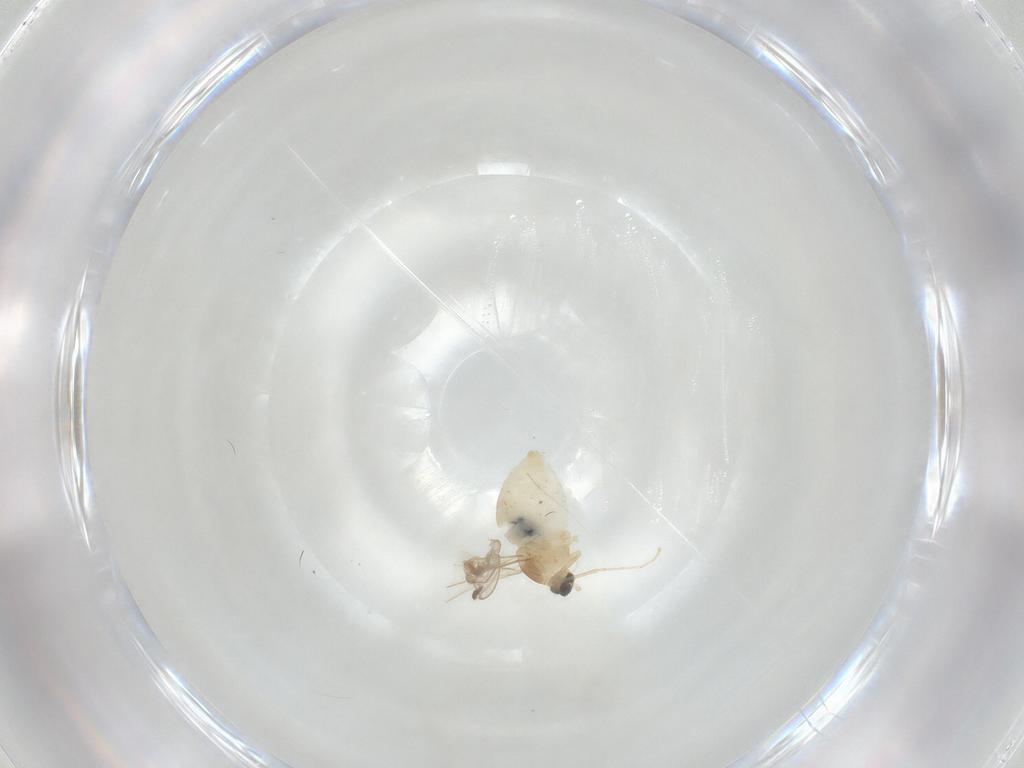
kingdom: Animalia
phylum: Arthropoda
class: Insecta
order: Diptera
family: Cecidomyiidae
